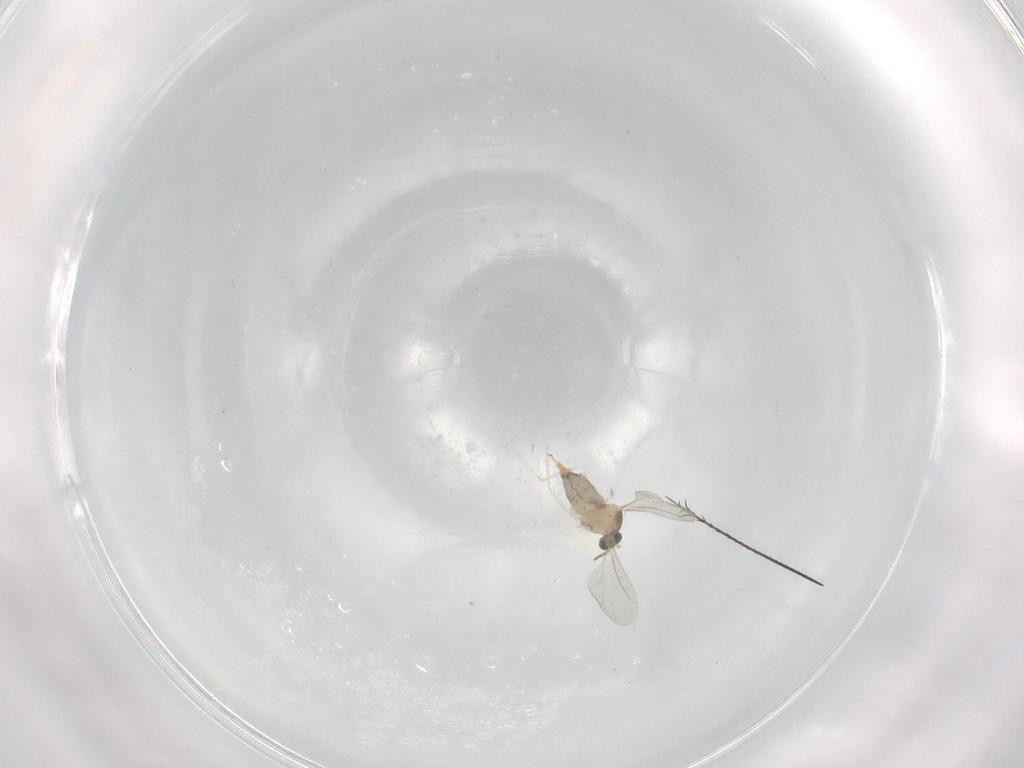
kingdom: Animalia
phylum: Arthropoda
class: Insecta
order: Diptera
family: Cecidomyiidae
